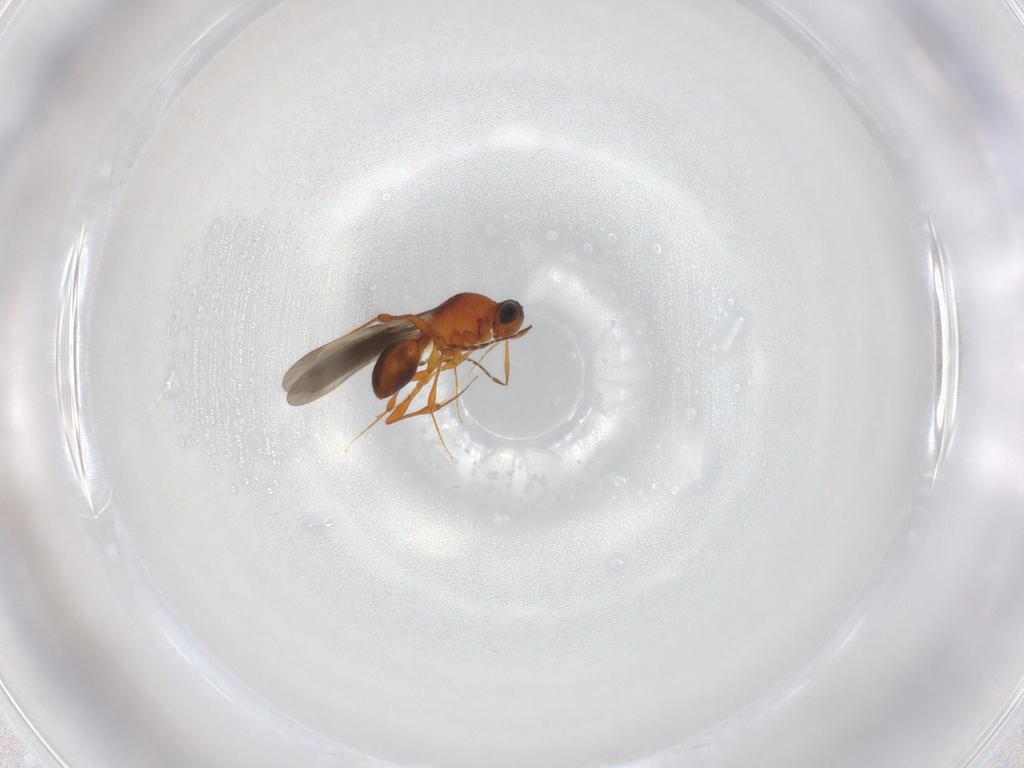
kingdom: Animalia
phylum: Arthropoda
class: Insecta
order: Hymenoptera
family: Platygastridae
